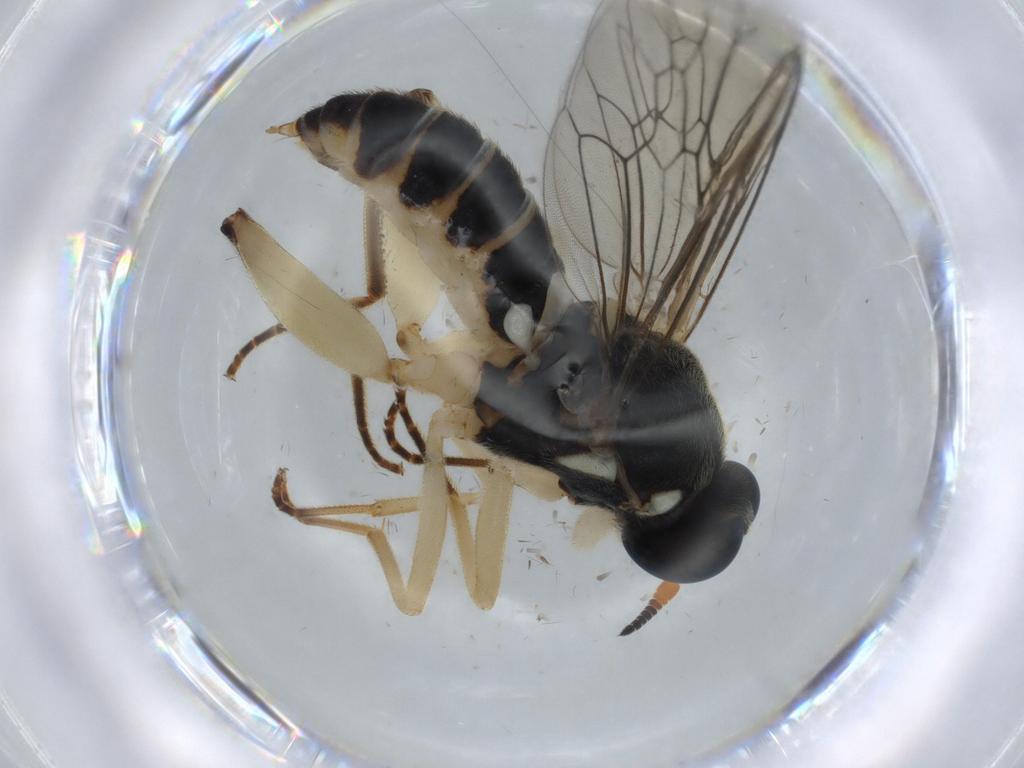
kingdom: Animalia
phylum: Arthropoda
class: Insecta
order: Diptera
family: Xylomyidae
